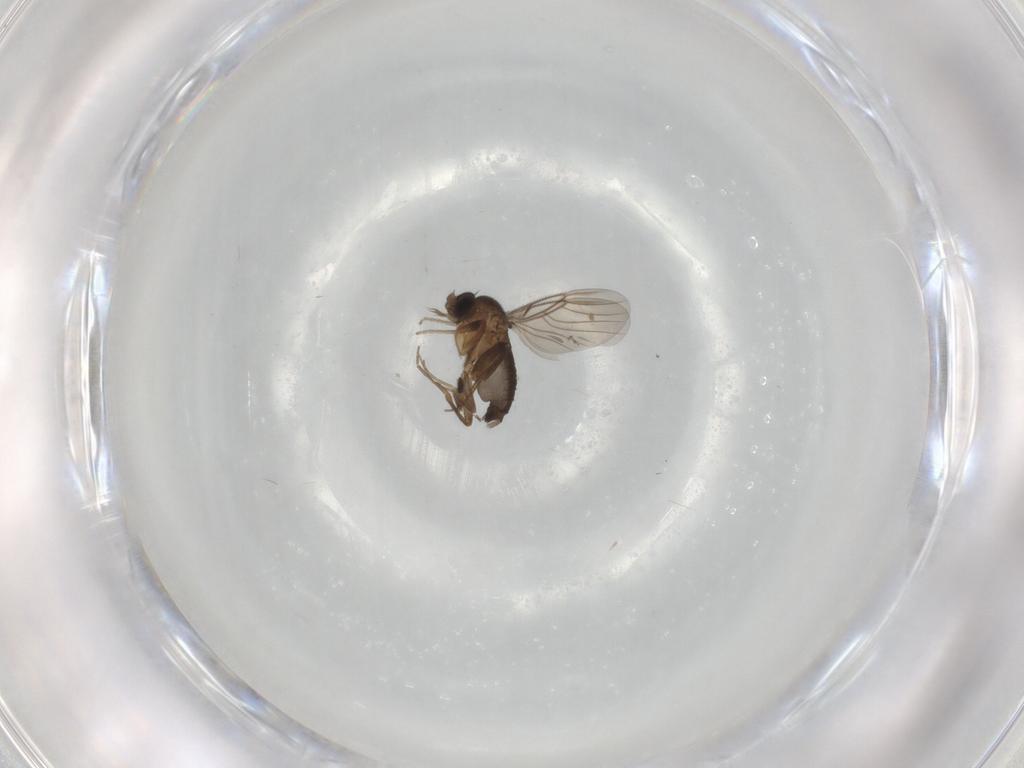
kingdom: Animalia
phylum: Arthropoda
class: Insecta
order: Diptera
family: Phoridae
